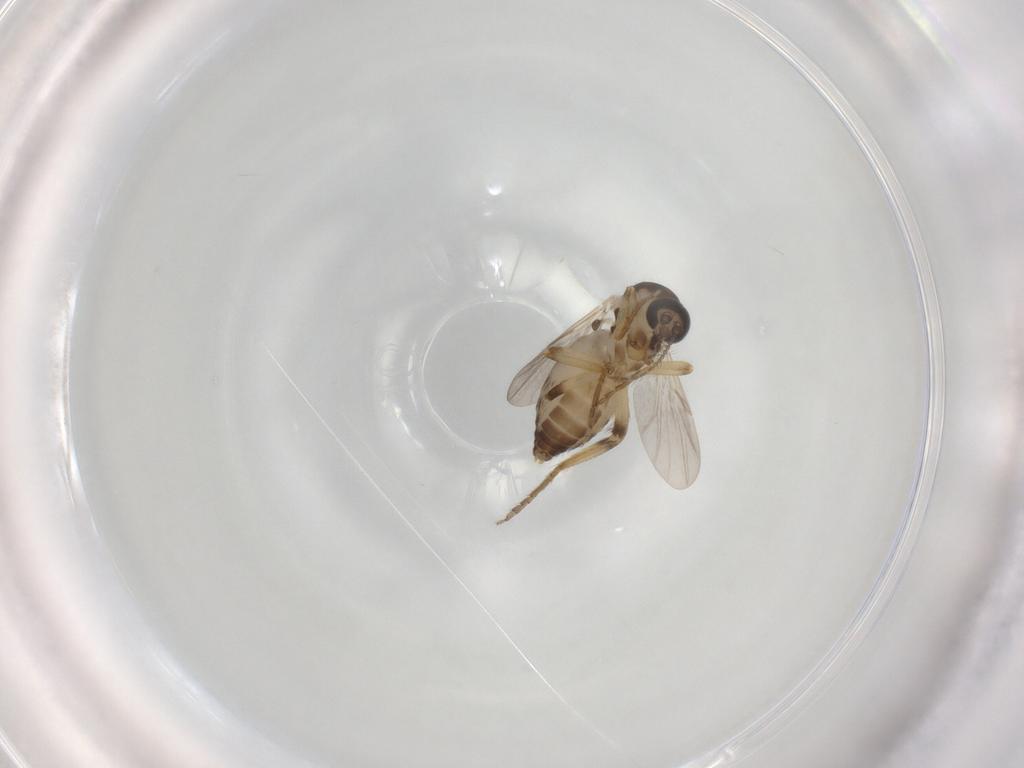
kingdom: Animalia
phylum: Arthropoda
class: Insecta
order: Diptera
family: Ceratopogonidae
